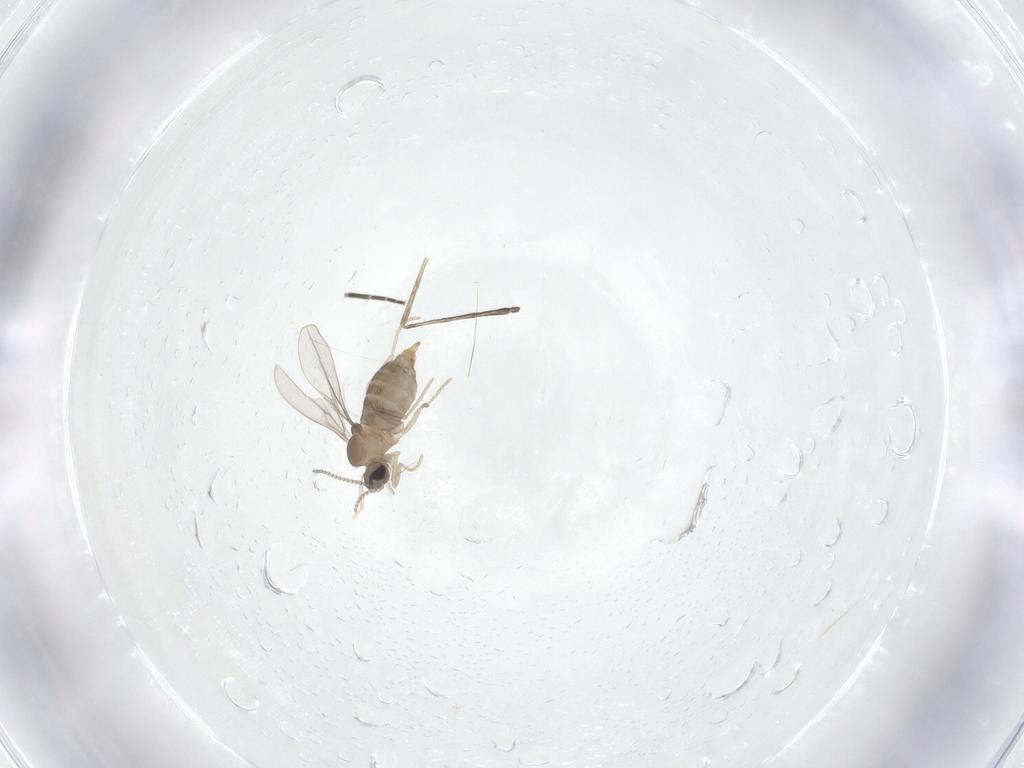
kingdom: Animalia
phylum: Arthropoda
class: Insecta
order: Diptera
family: Cecidomyiidae
